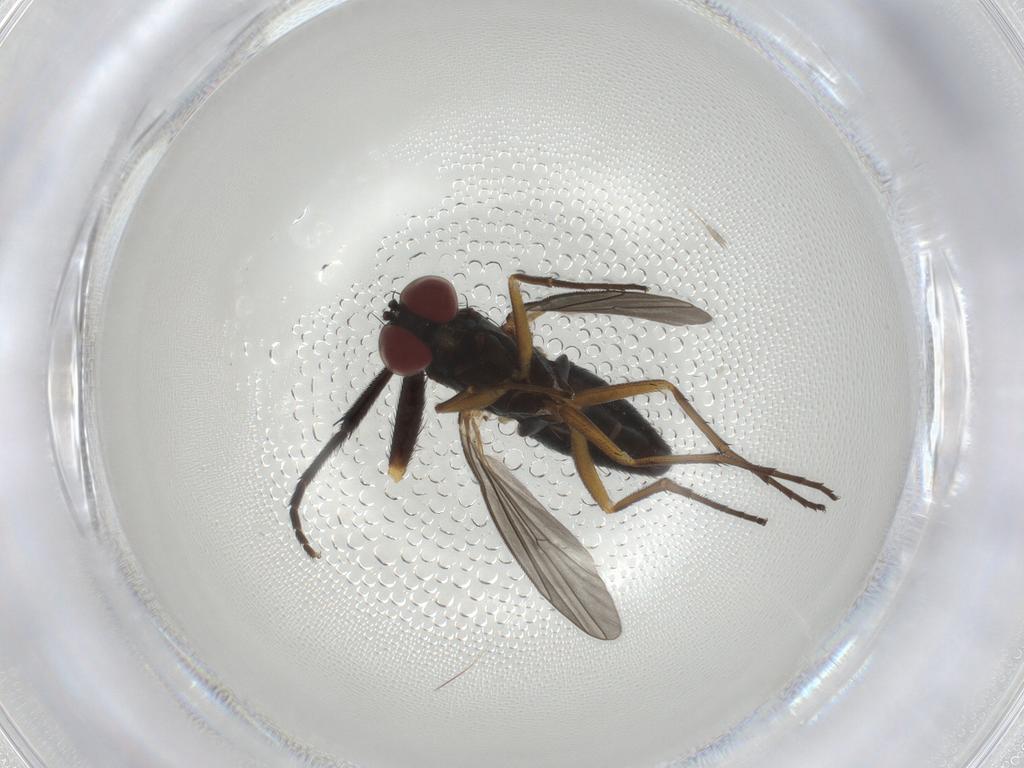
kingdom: Animalia
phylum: Arthropoda
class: Insecta
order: Diptera
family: Dolichopodidae
